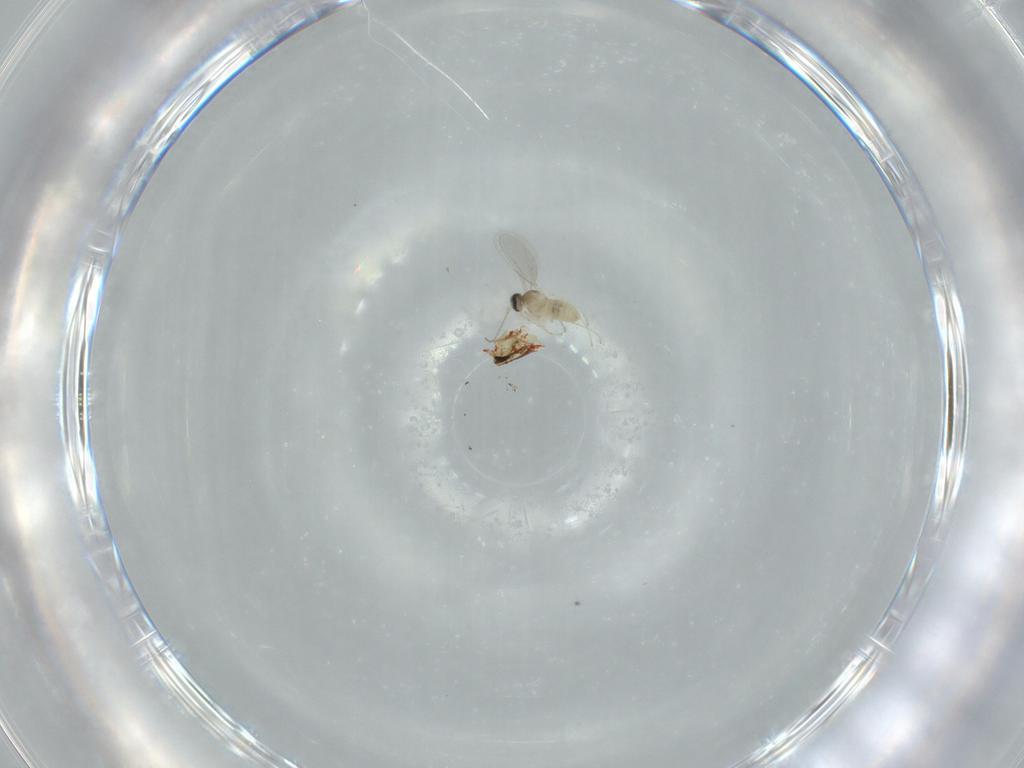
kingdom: Animalia
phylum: Arthropoda
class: Insecta
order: Diptera
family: Cecidomyiidae
